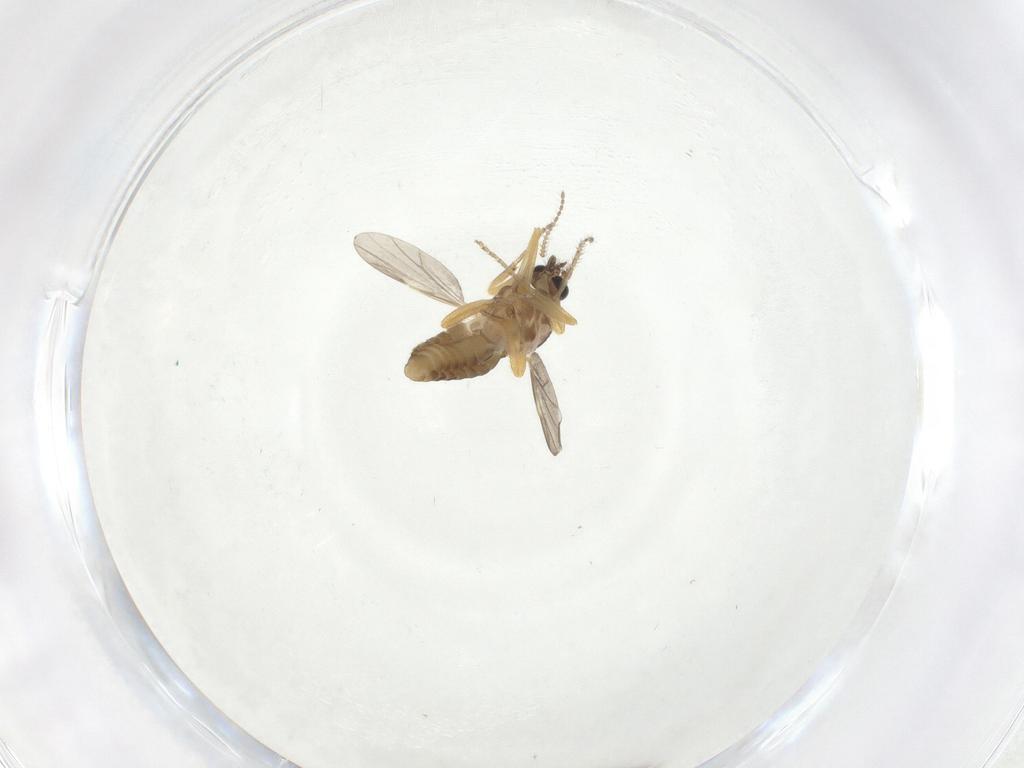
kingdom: Animalia
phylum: Arthropoda
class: Insecta
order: Diptera
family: Ceratopogonidae
